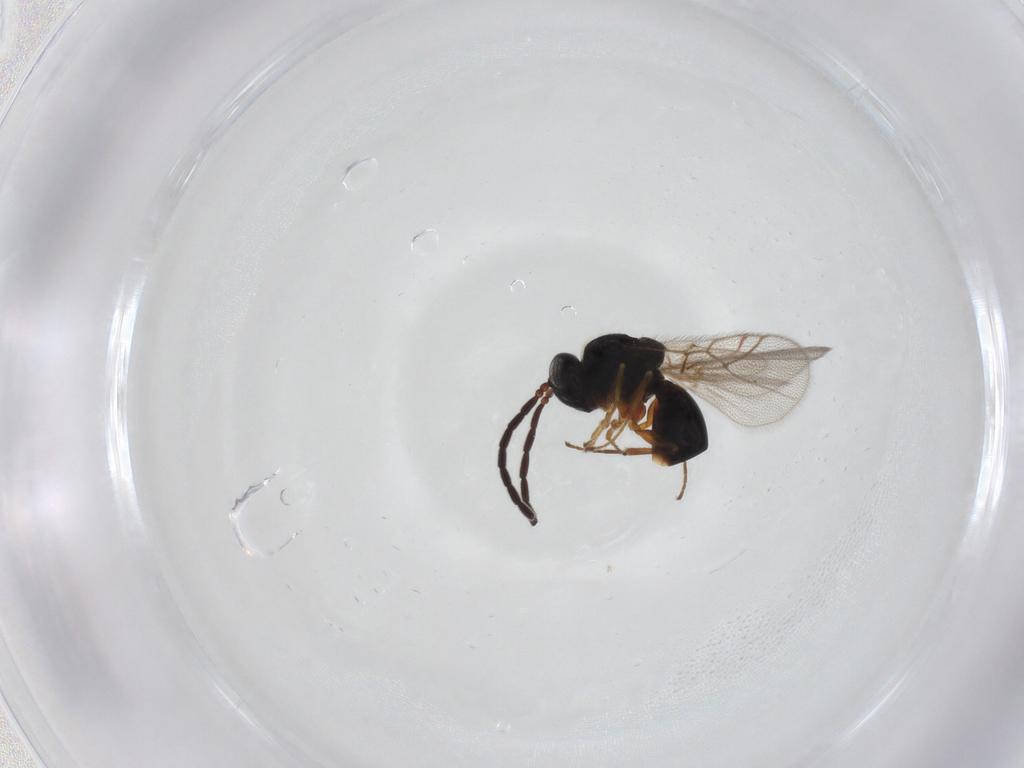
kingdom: Animalia
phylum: Arthropoda
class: Insecta
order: Hymenoptera
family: Figitidae
